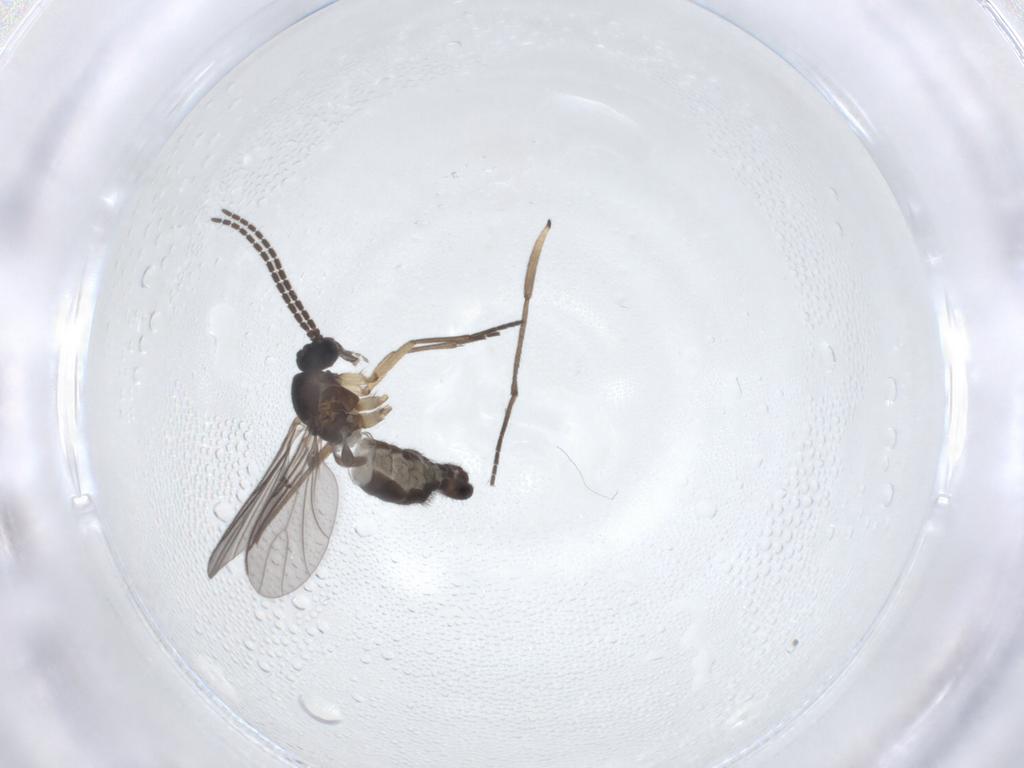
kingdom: Animalia
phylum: Arthropoda
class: Insecta
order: Diptera
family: Sciaridae
